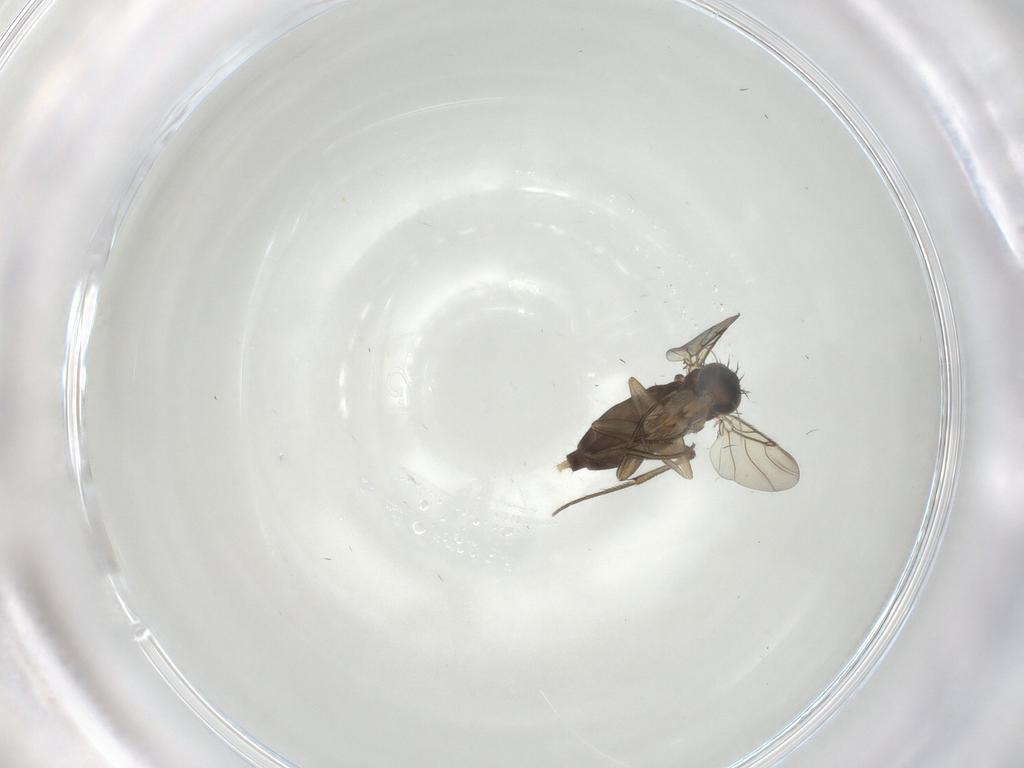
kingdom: Animalia
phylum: Arthropoda
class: Insecta
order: Diptera
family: Phoridae
